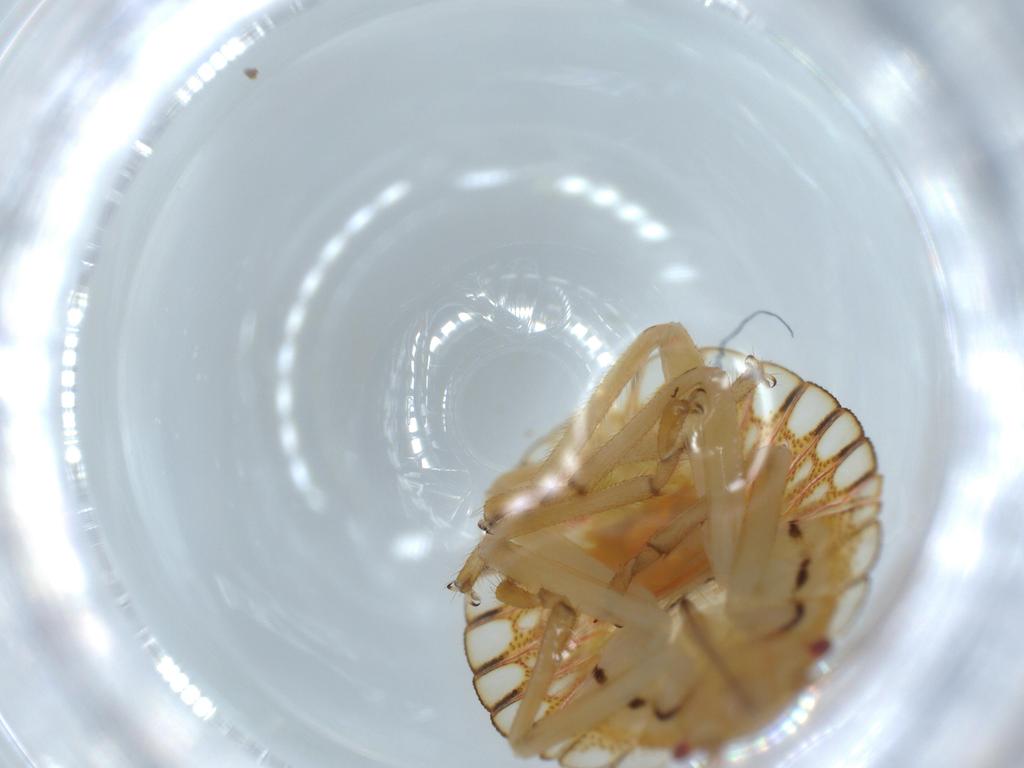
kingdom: Animalia
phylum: Arthropoda
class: Insecta
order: Hemiptera
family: Pentatomidae
